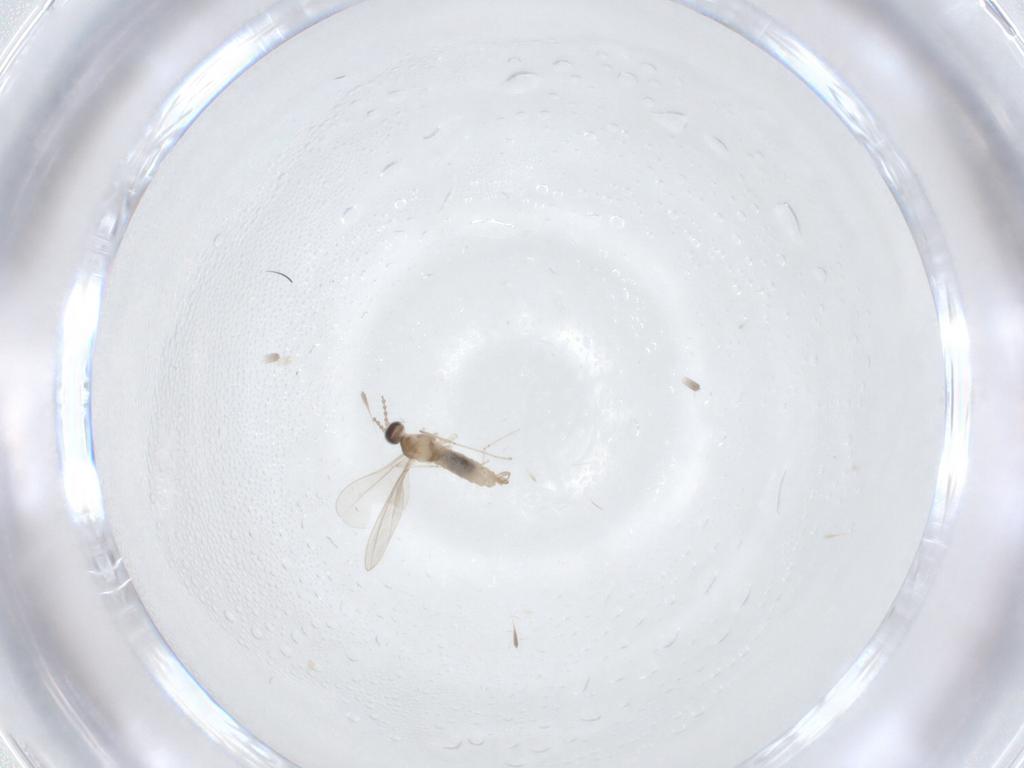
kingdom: Animalia
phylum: Arthropoda
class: Insecta
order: Diptera
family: Cecidomyiidae
